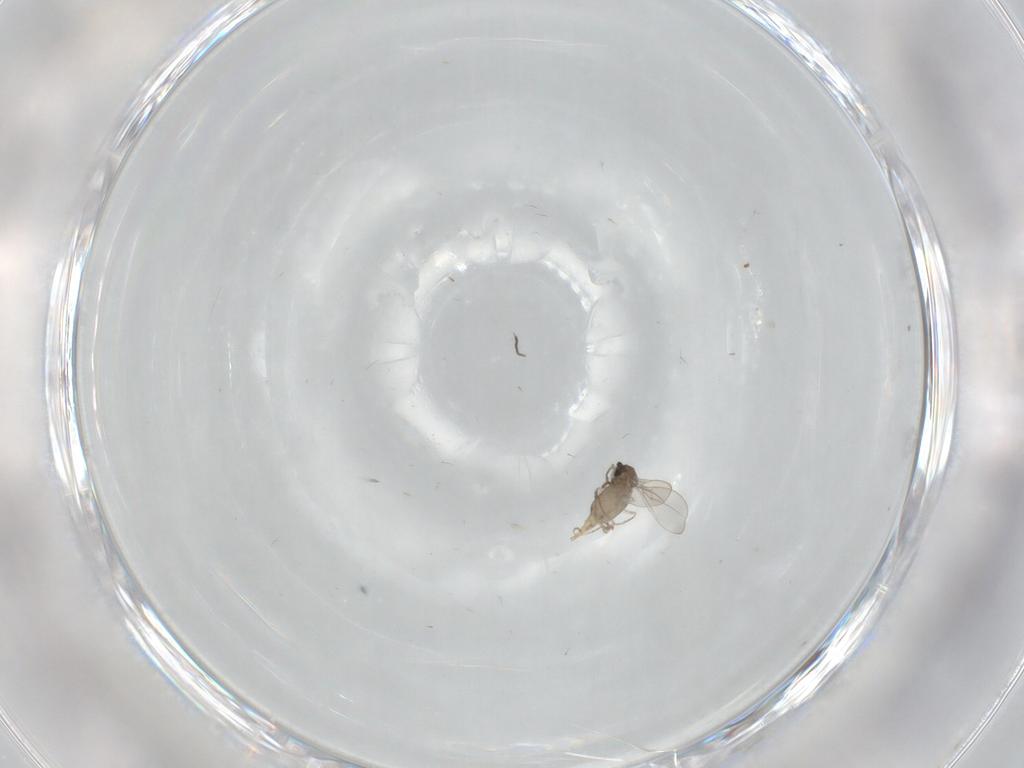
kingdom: Animalia
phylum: Arthropoda
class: Insecta
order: Diptera
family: Cecidomyiidae
